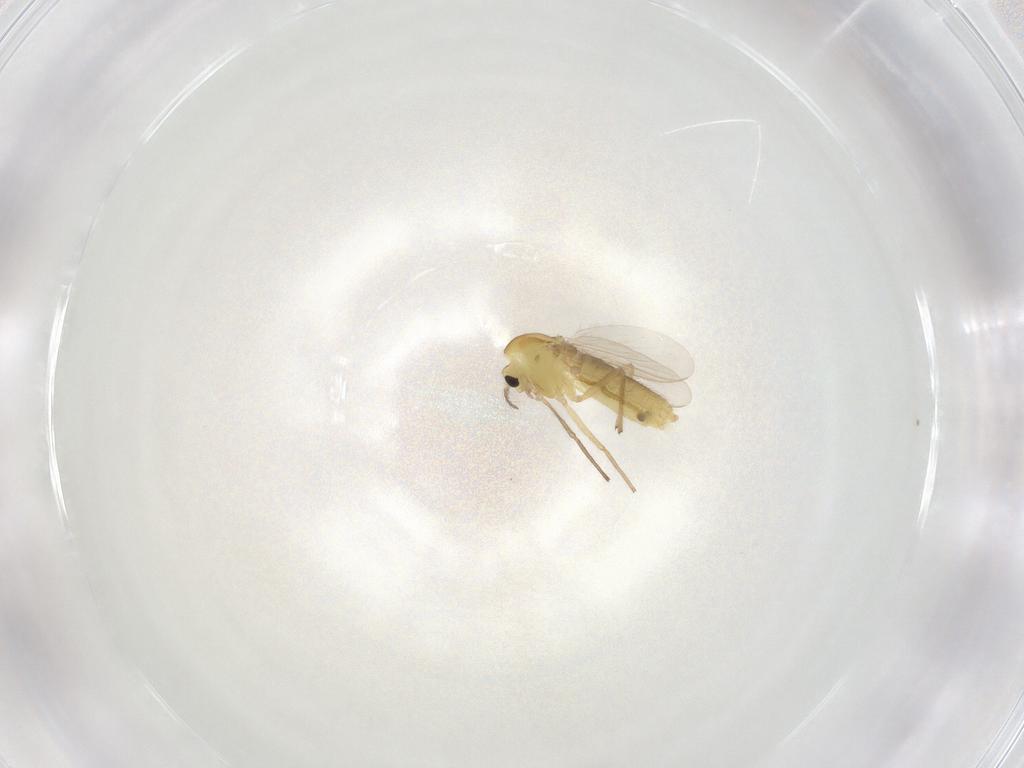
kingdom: Animalia
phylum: Arthropoda
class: Insecta
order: Diptera
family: Chironomidae
